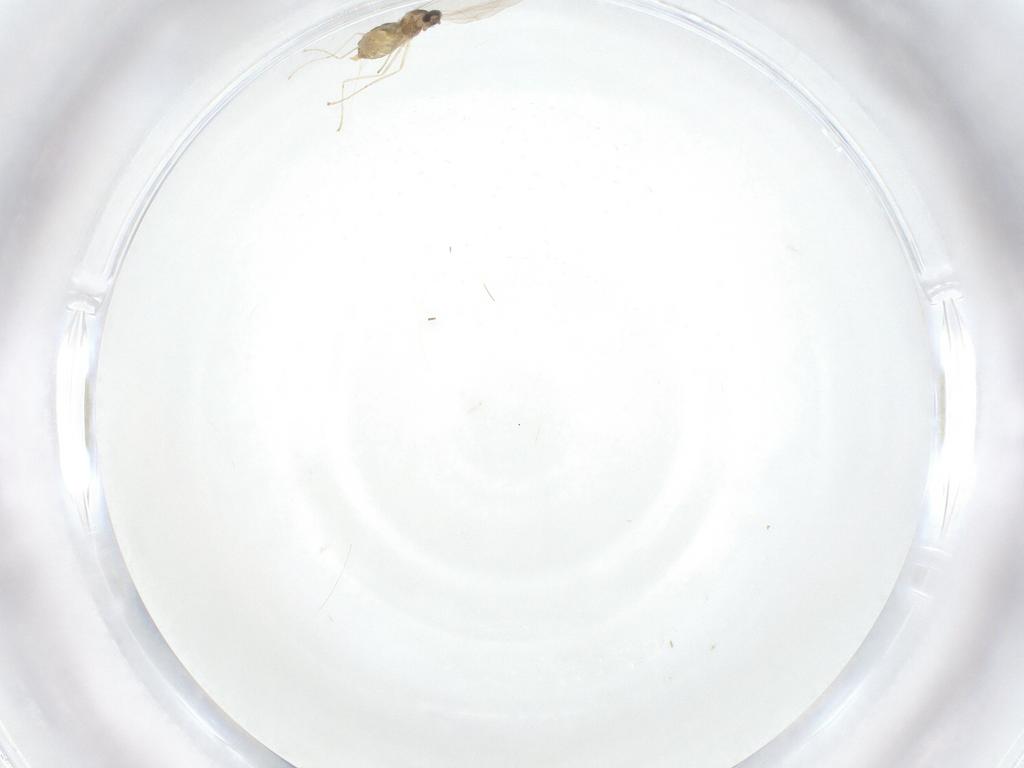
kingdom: Animalia
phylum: Arthropoda
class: Insecta
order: Diptera
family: Cecidomyiidae
